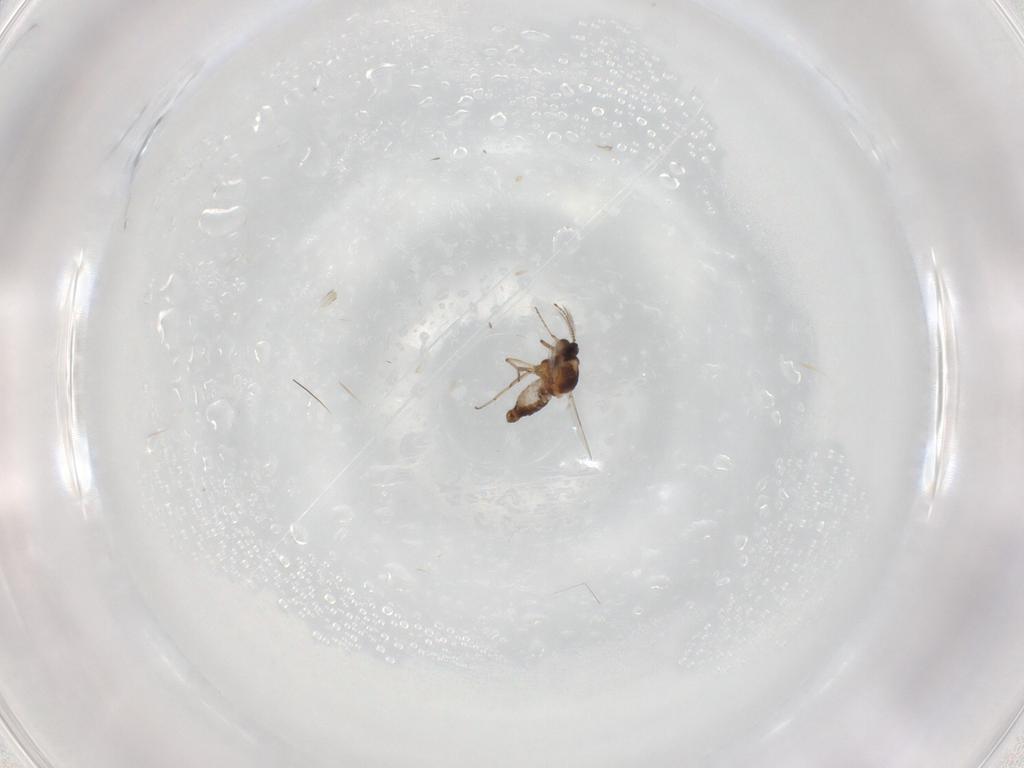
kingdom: Animalia
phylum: Arthropoda
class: Insecta
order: Diptera
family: Ceratopogonidae
